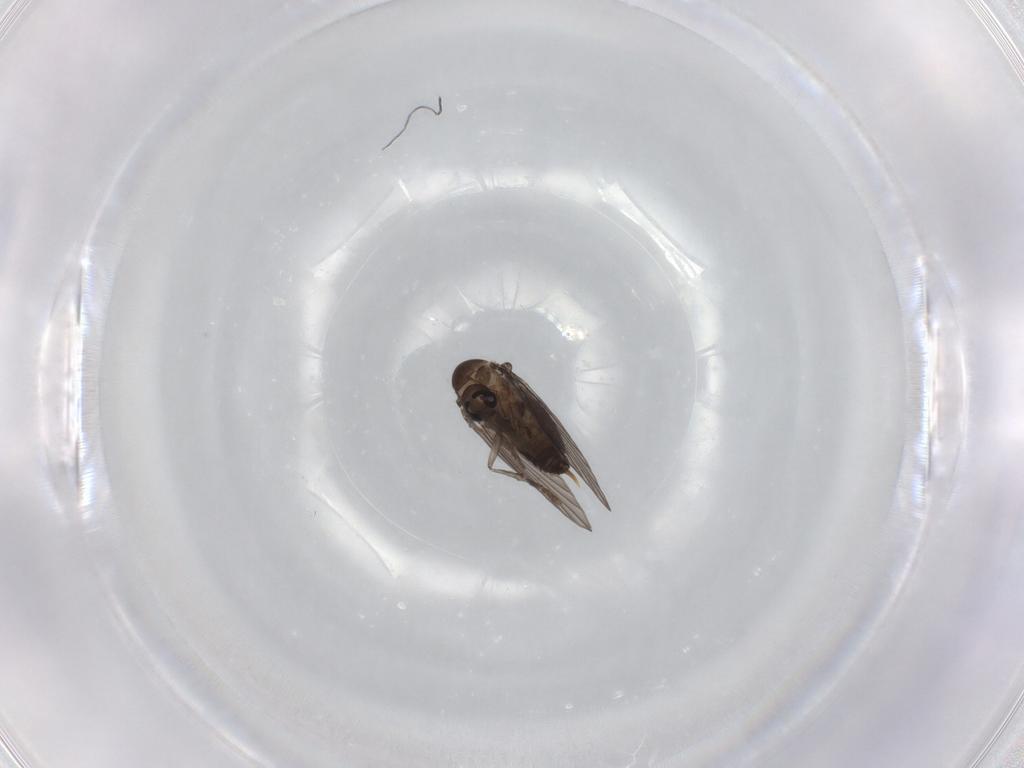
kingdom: Animalia
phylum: Arthropoda
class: Insecta
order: Diptera
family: Psychodidae
